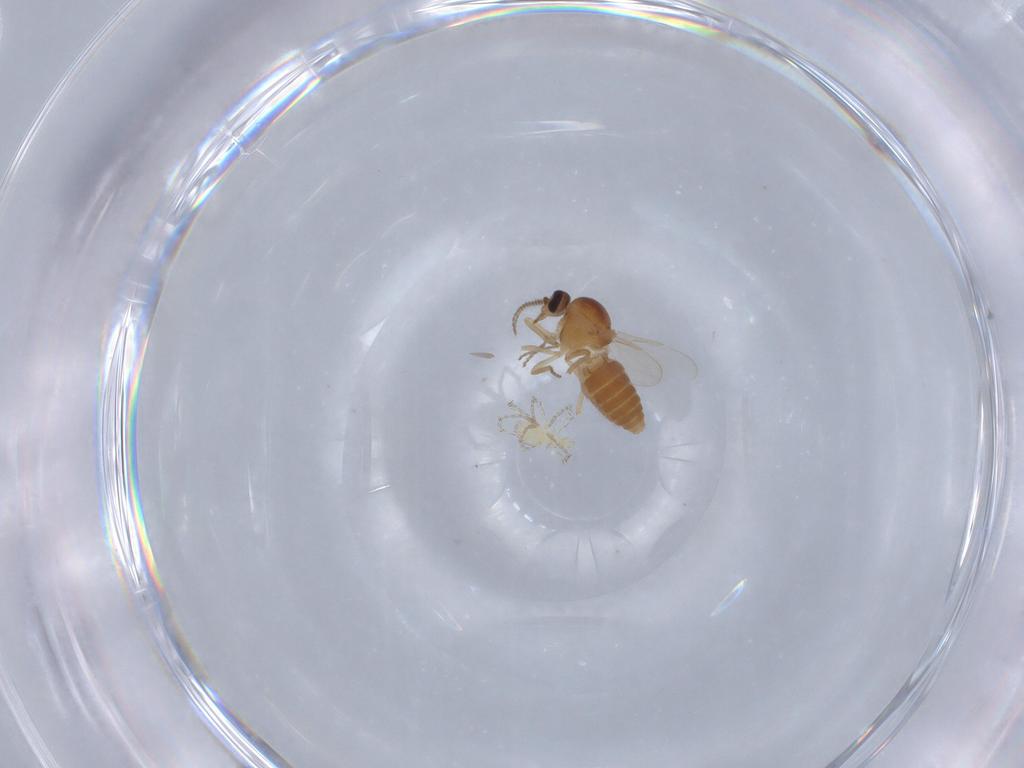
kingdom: Animalia
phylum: Arthropoda
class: Insecta
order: Diptera
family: Ceratopogonidae
